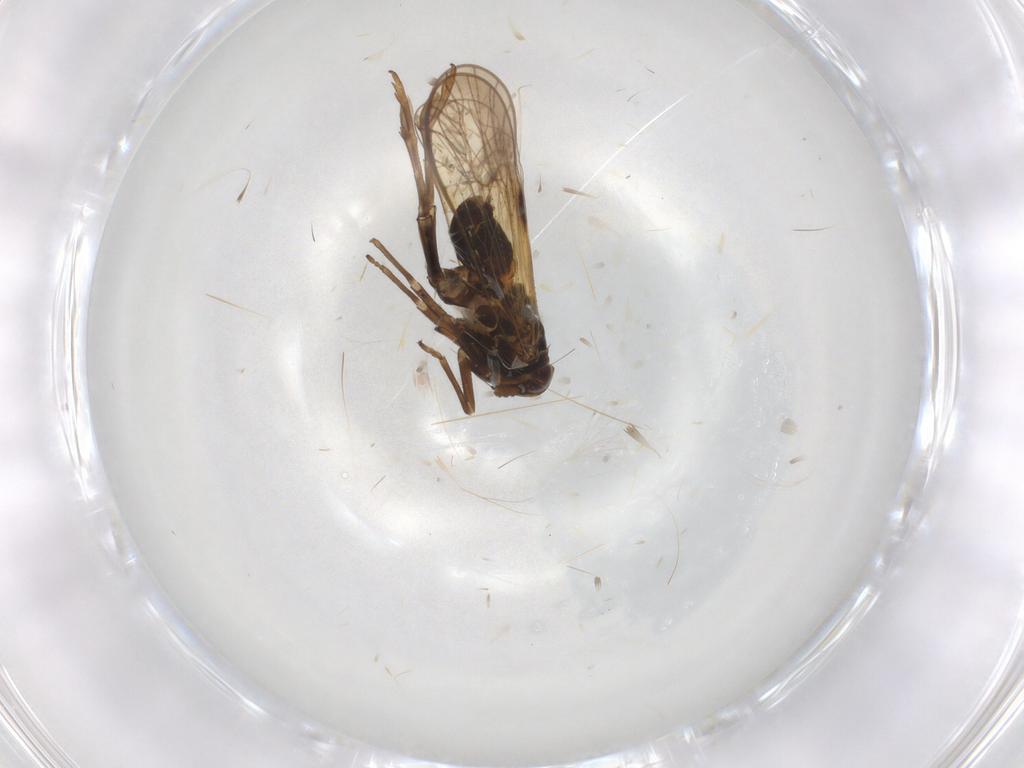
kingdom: Animalia
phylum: Arthropoda
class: Insecta
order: Hemiptera
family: Delphacidae
